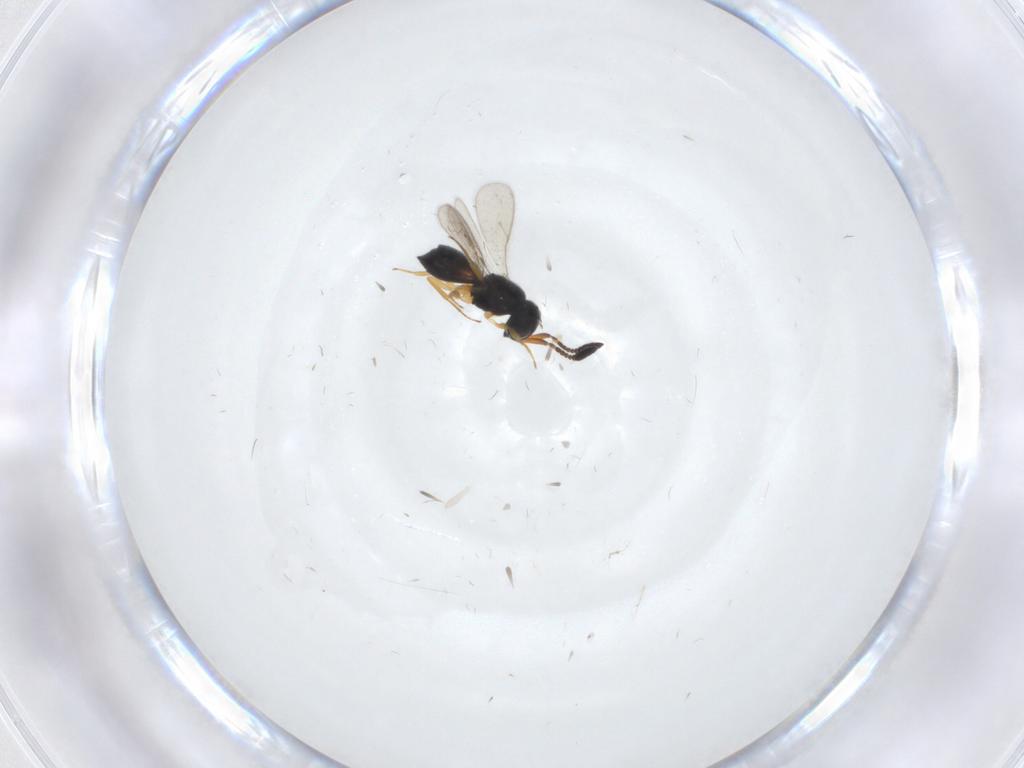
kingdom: Animalia
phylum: Arthropoda
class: Insecta
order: Hymenoptera
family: Scelionidae
